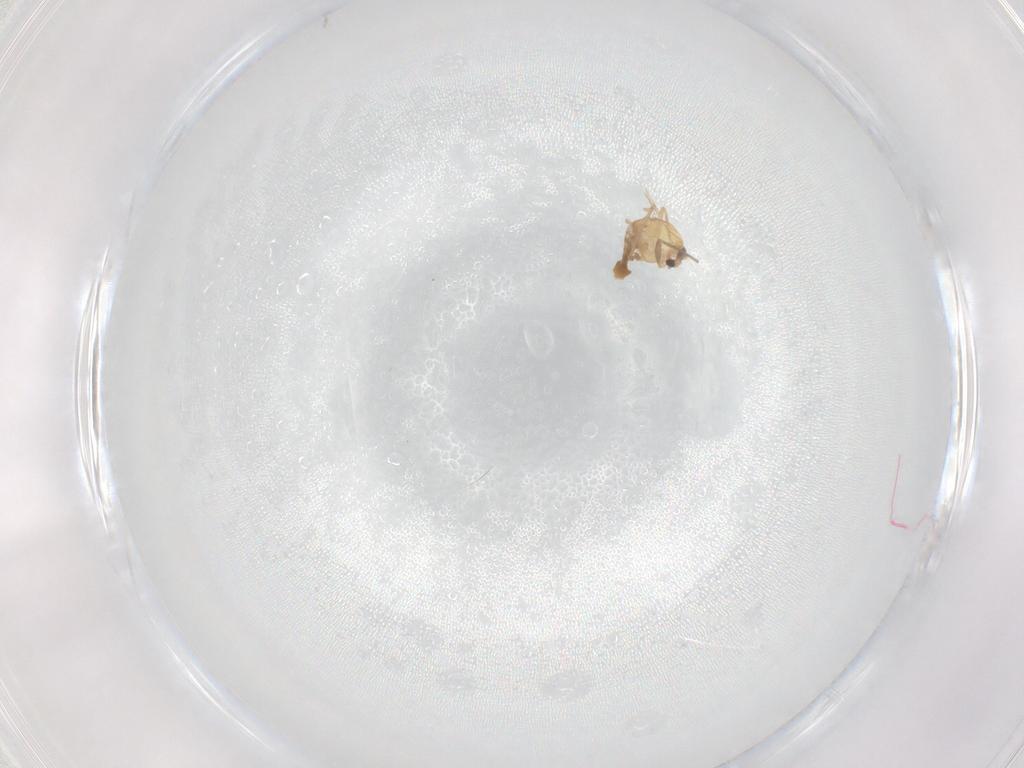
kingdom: Animalia
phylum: Arthropoda
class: Insecta
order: Diptera
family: Chironomidae
